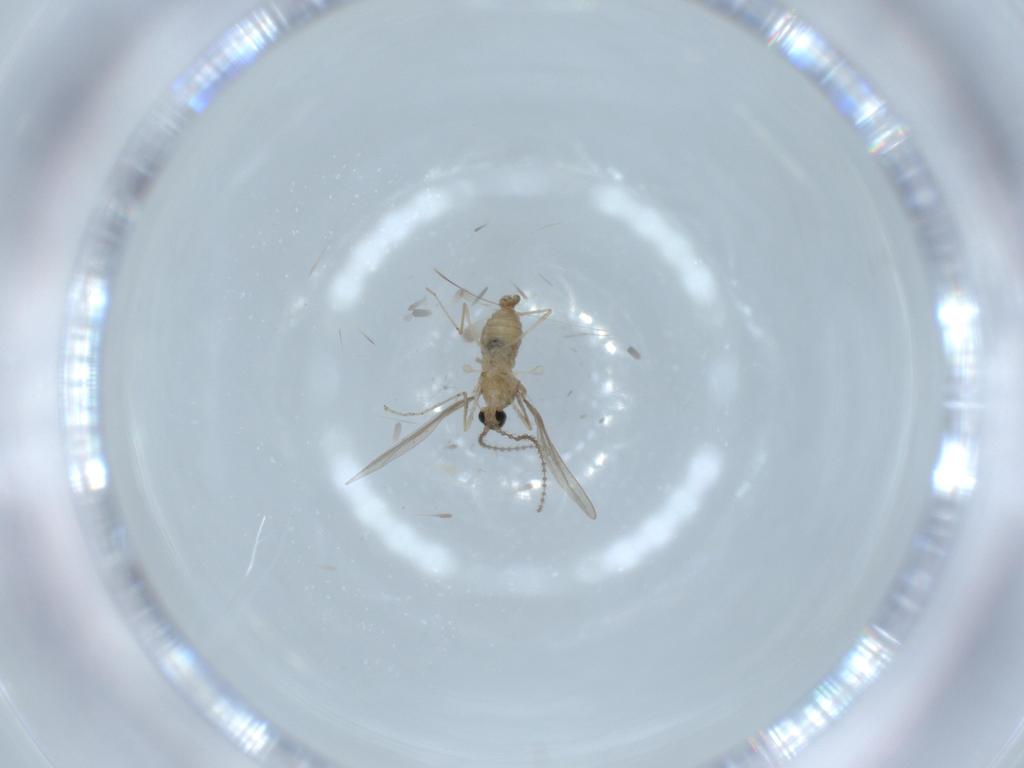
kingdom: Animalia
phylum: Arthropoda
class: Insecta
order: Diptera
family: Cecidomyiidae
